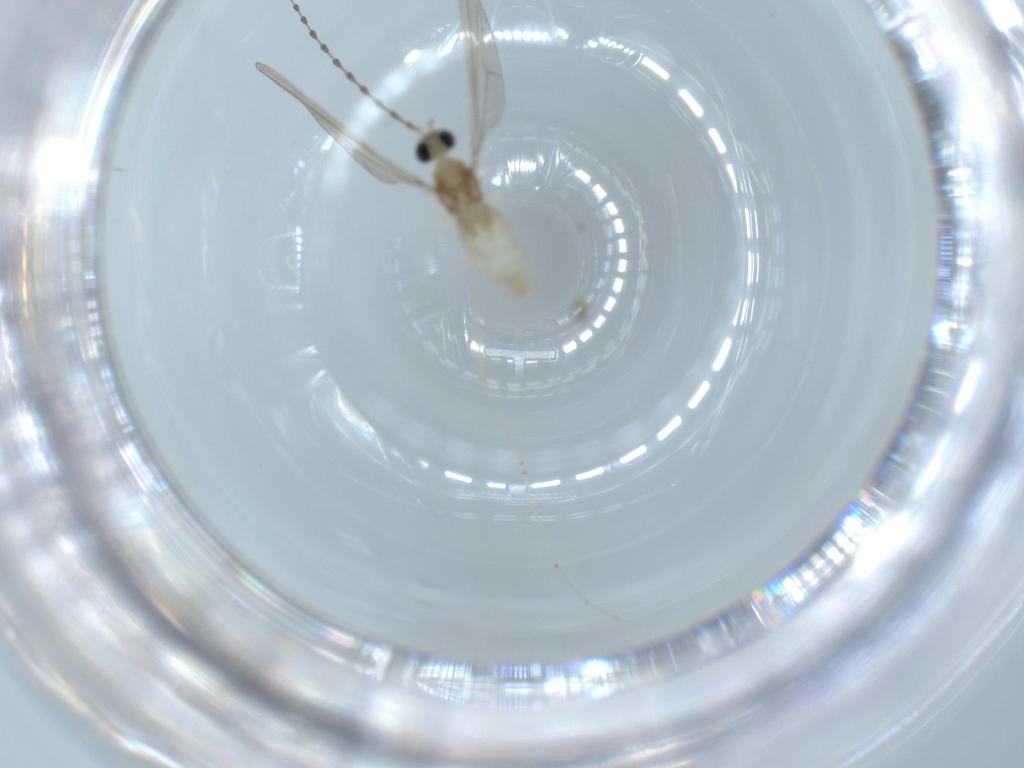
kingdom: Animalia
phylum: Arthropoda
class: Insecta
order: Diptera
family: Cecidomyiidae
